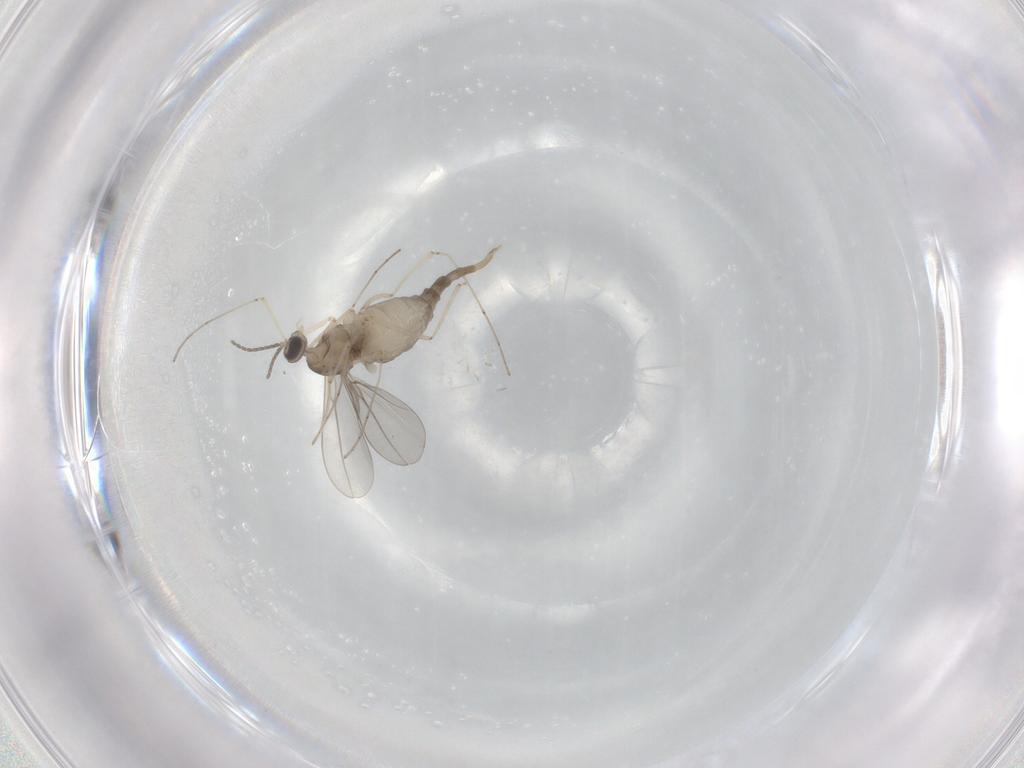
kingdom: Animalia
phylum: Arthropoda
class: Insecta
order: Diptera
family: Cecidomyiidae
